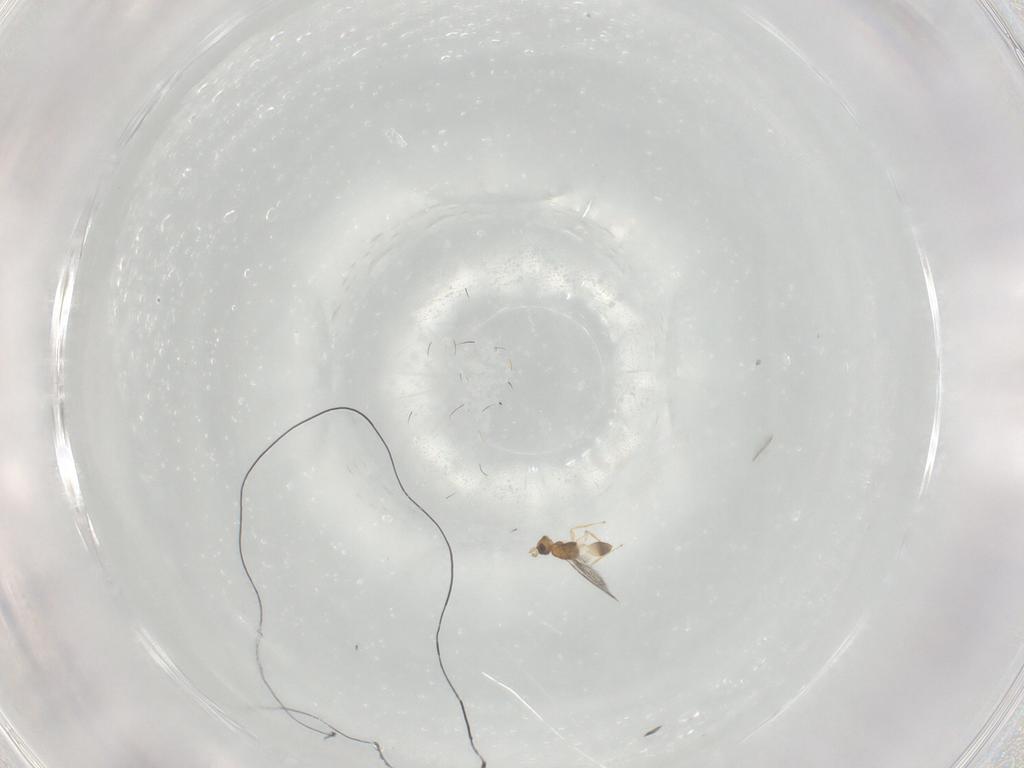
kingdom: Animalia
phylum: Arthropoda
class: Insecta
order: Hymenoptera
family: Mymaridae
